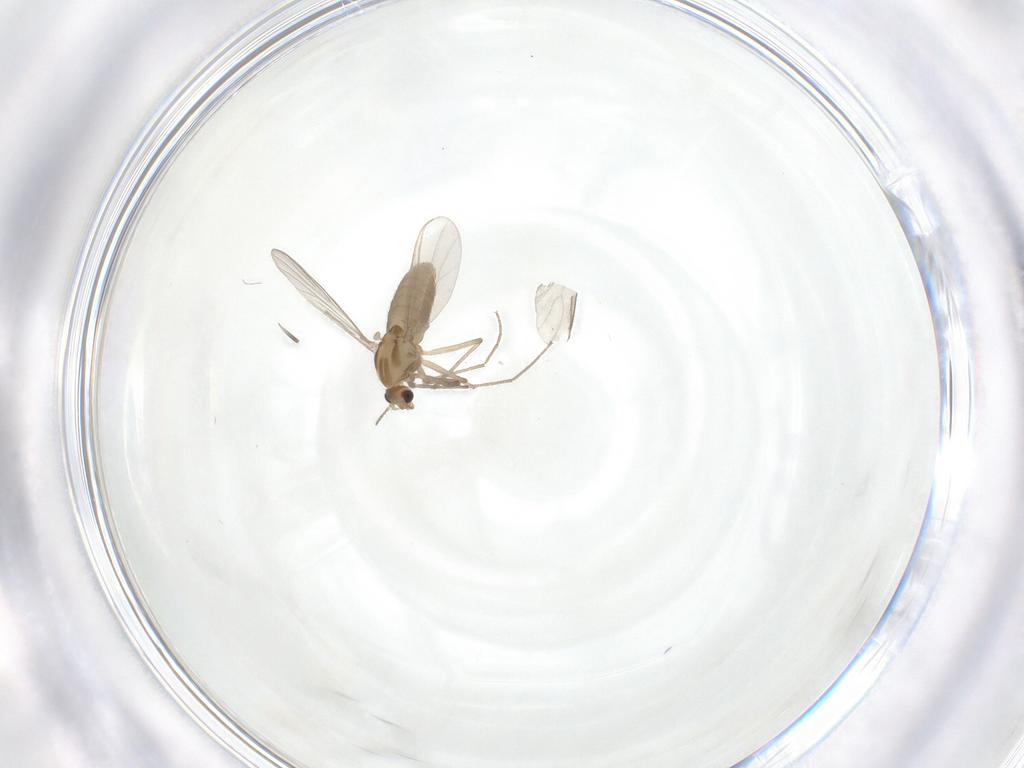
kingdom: Animalia
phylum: Arthropoda
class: Insecta
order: Diptera
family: Chironomidae
